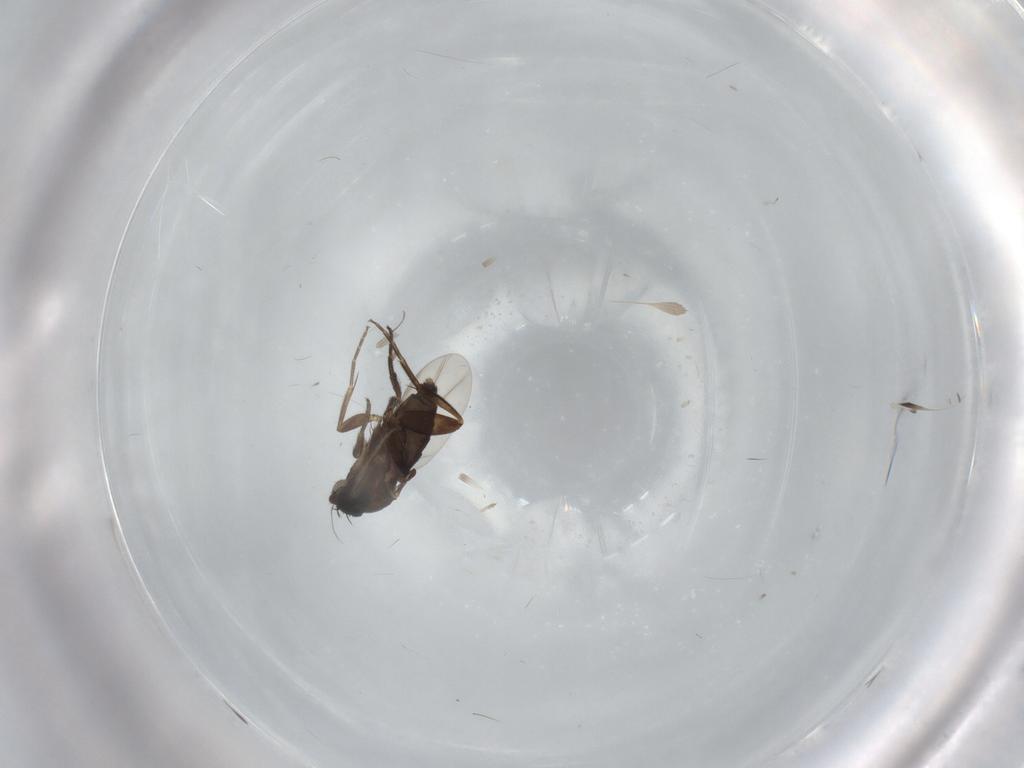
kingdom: Animalia
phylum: Arthropoda
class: Insecta
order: Diptera
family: Phoridae
